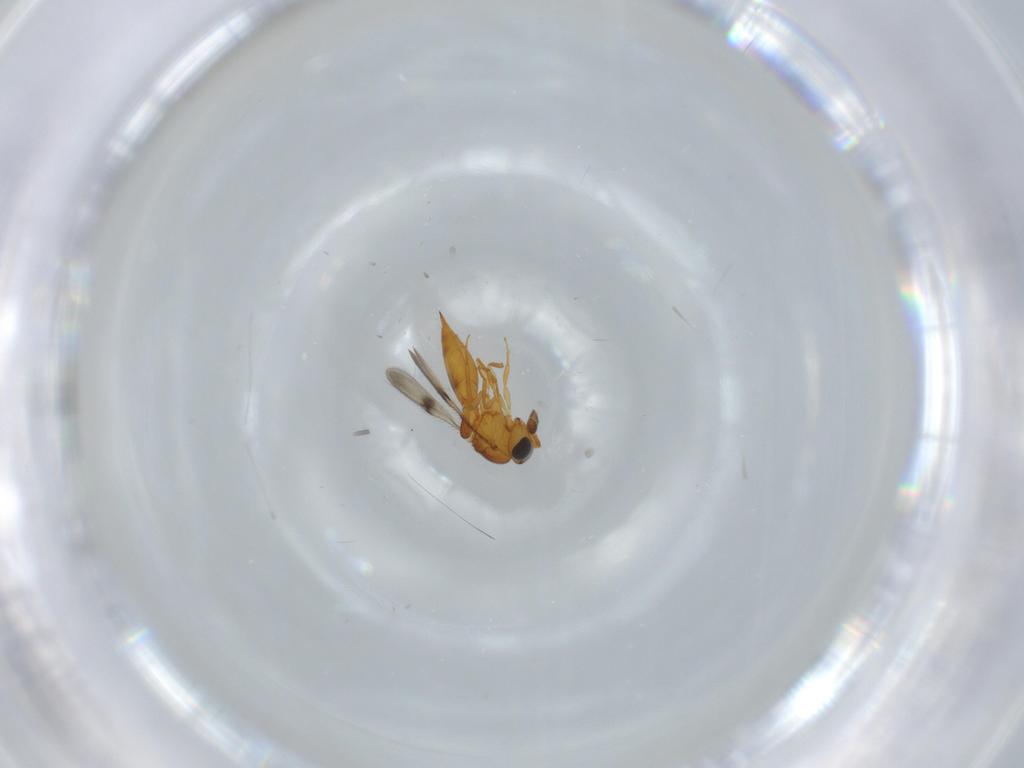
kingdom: Animalia
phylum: Arthropoda
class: Insecta
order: Hymenoptera
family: Scelionidae
